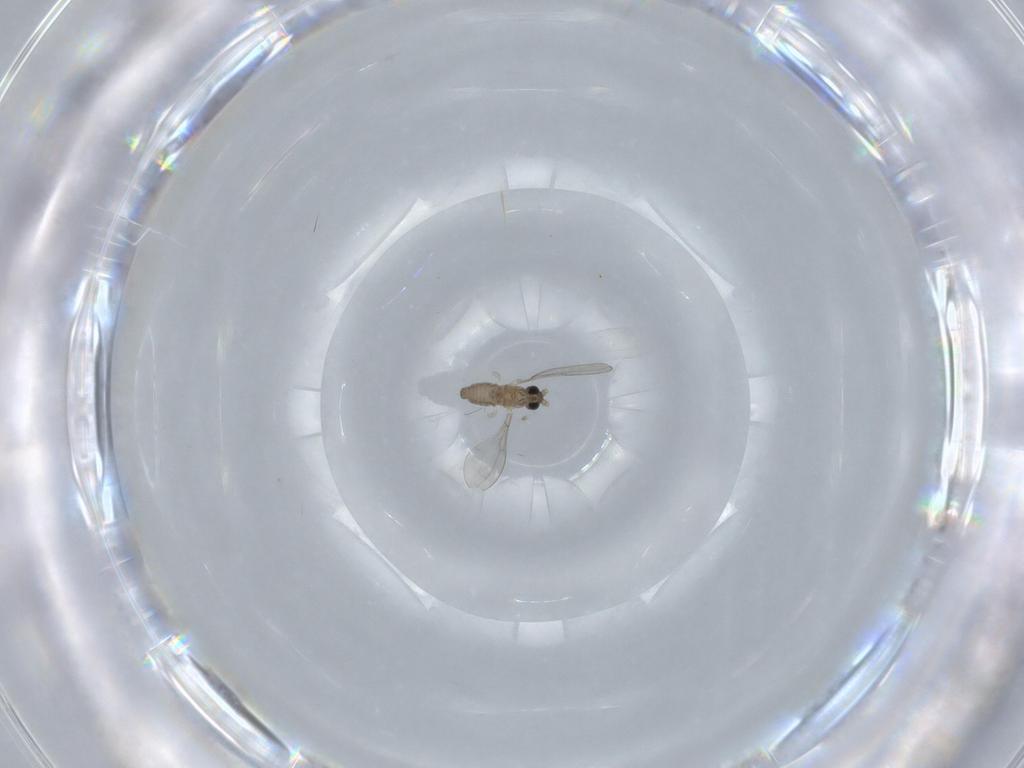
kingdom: Animalia
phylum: Arthropoda
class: Insecta
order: Diptera
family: Cecidomyiidae
